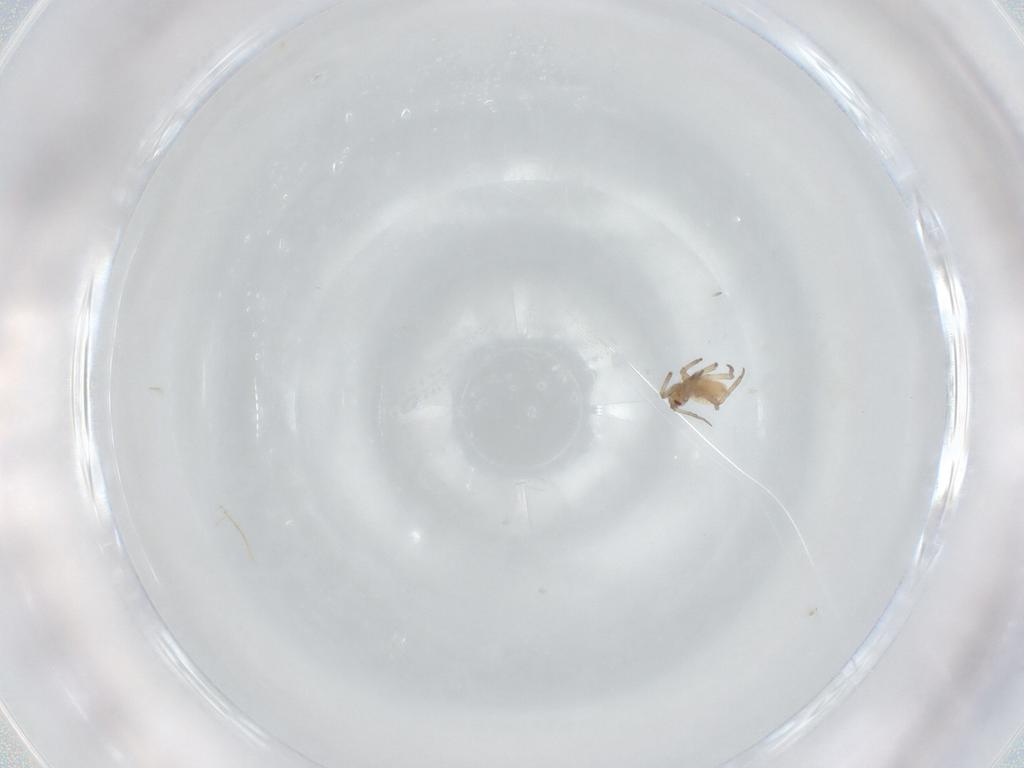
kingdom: Animalia
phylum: Arthropoda
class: Insecta
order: Hemiptera
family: Aphididae
